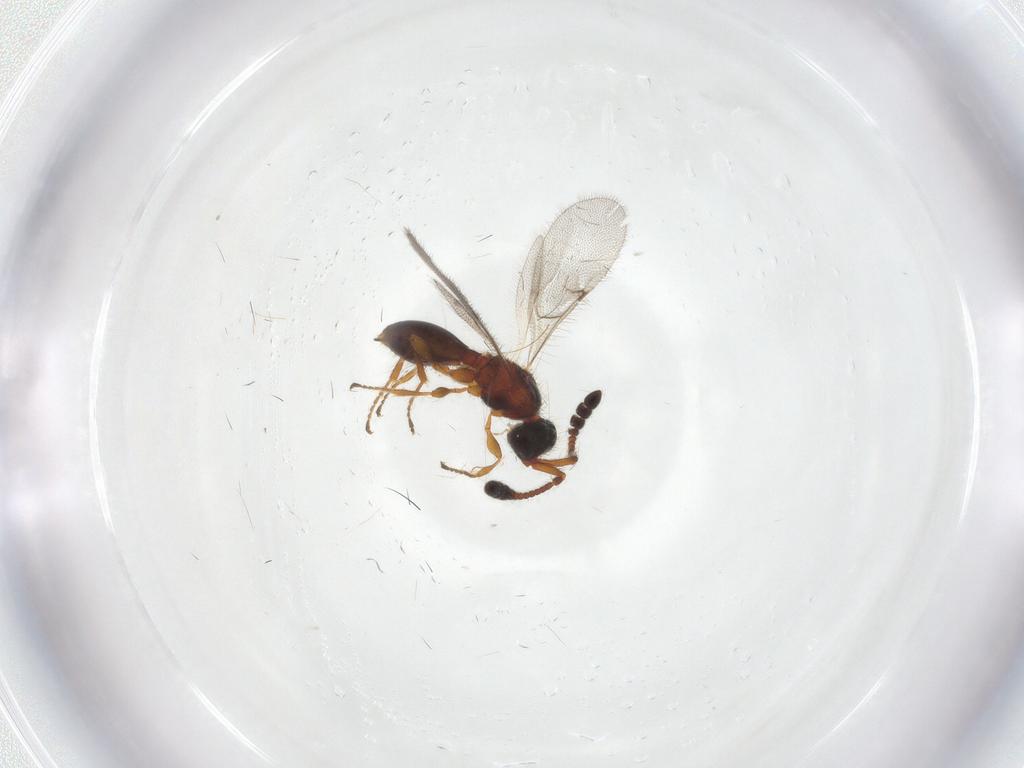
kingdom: Animalia
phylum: Arthropoda
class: Insecta
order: Hymenoptera
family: Diapriidae
